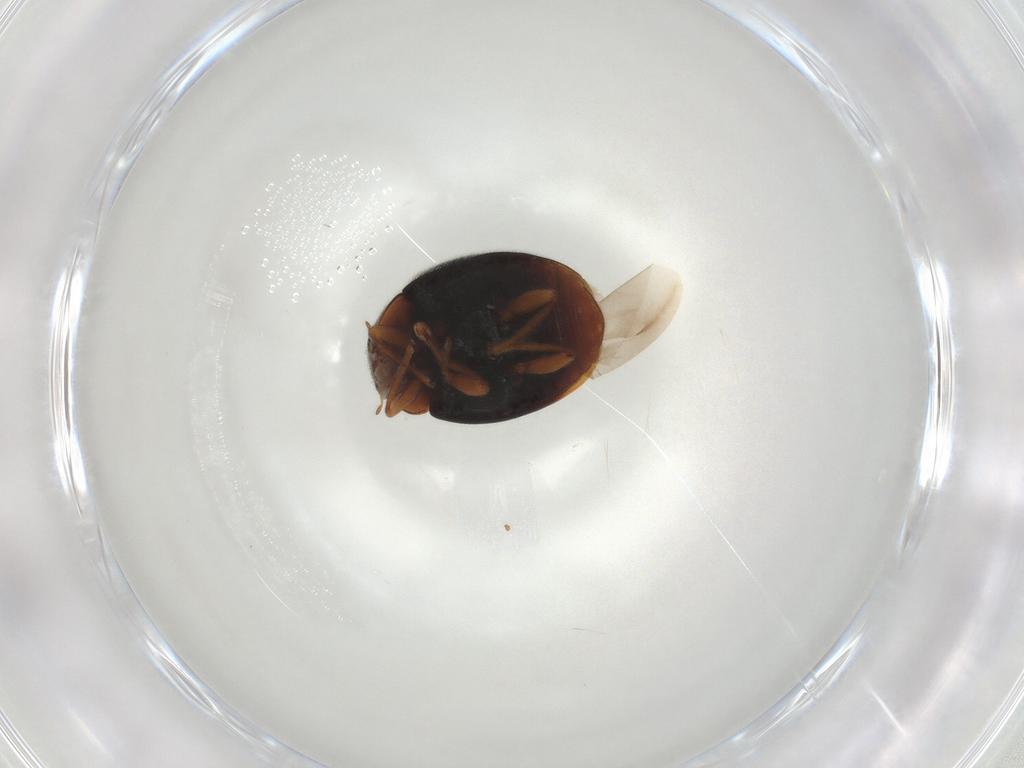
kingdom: Animalia
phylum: Arthropoda
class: Insecta
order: Coleoptera
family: Coccinellidae
